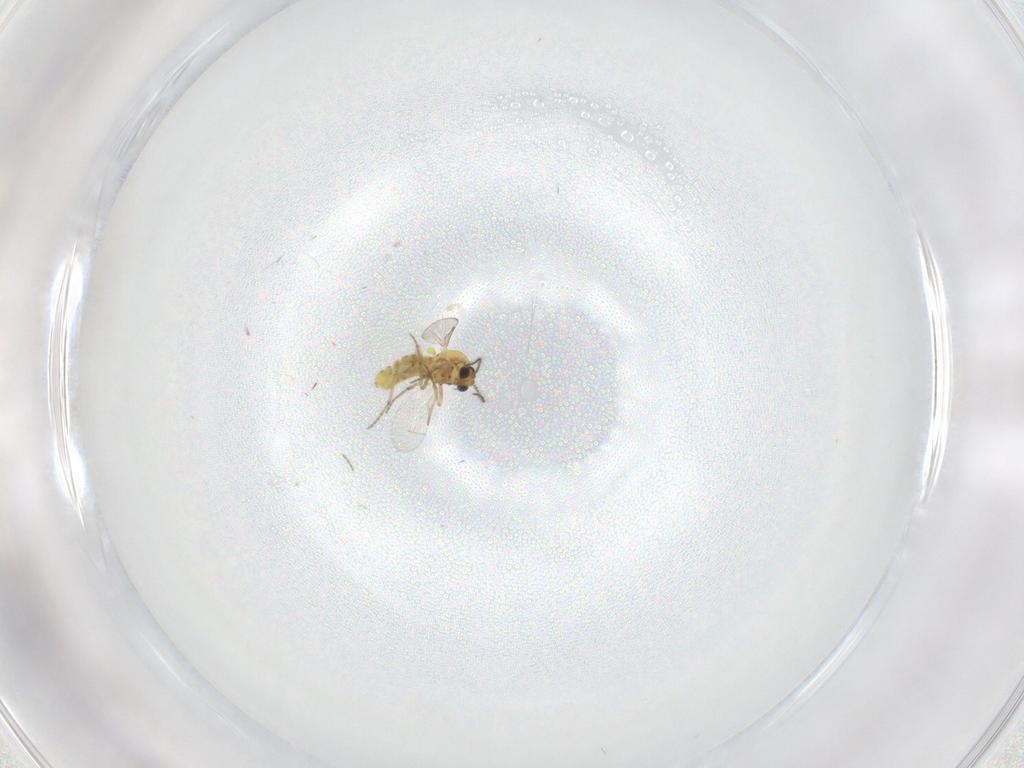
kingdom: Animalia
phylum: Arthropoda
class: Insecta
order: Diptera
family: Ceratopogonidae
